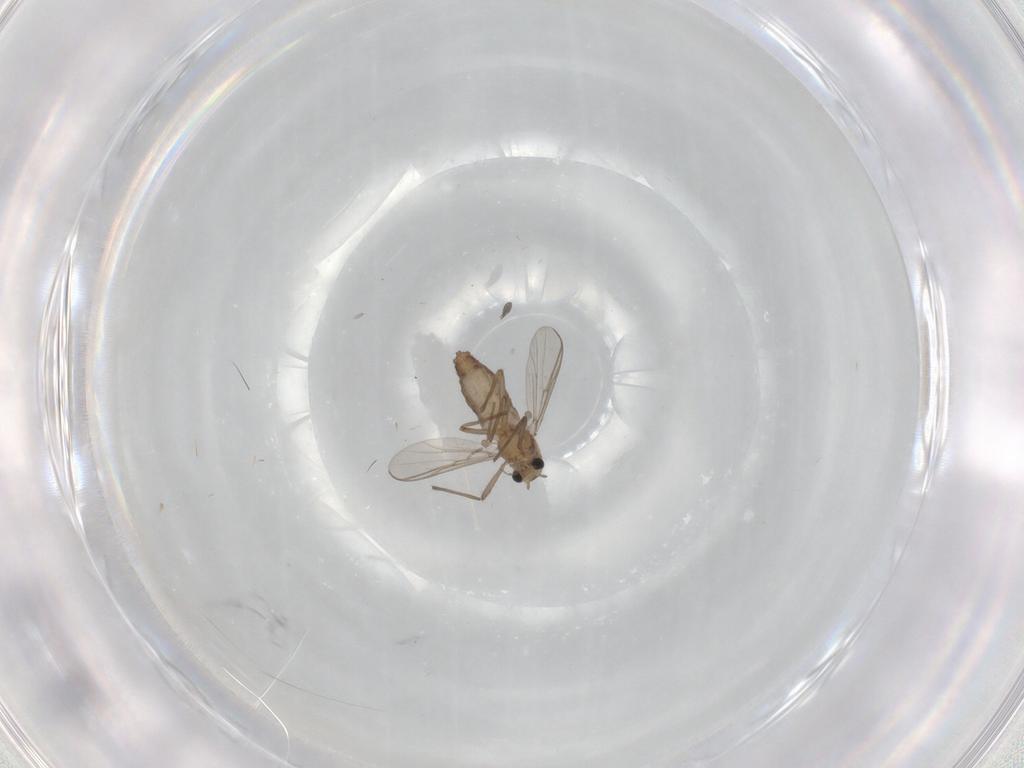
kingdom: Animalia
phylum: Arthropoda
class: Insecta
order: Diptera
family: Chironomidae
